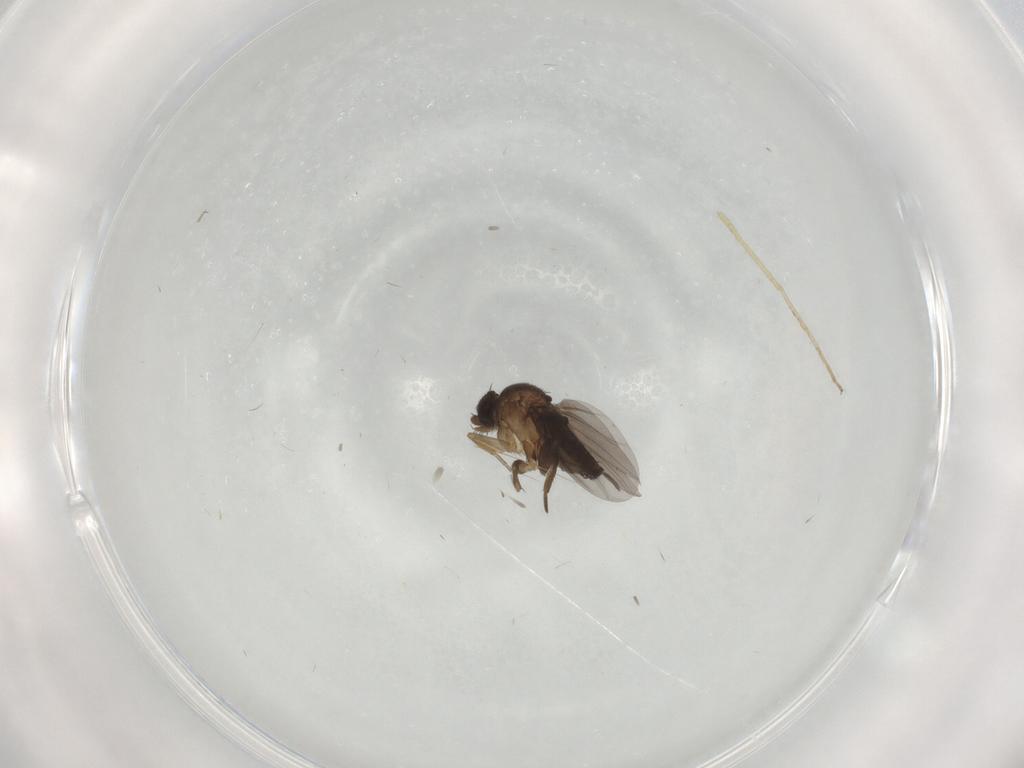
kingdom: Animalia
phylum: Arthropoda
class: Insecta
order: Diptera
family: Phoridae
